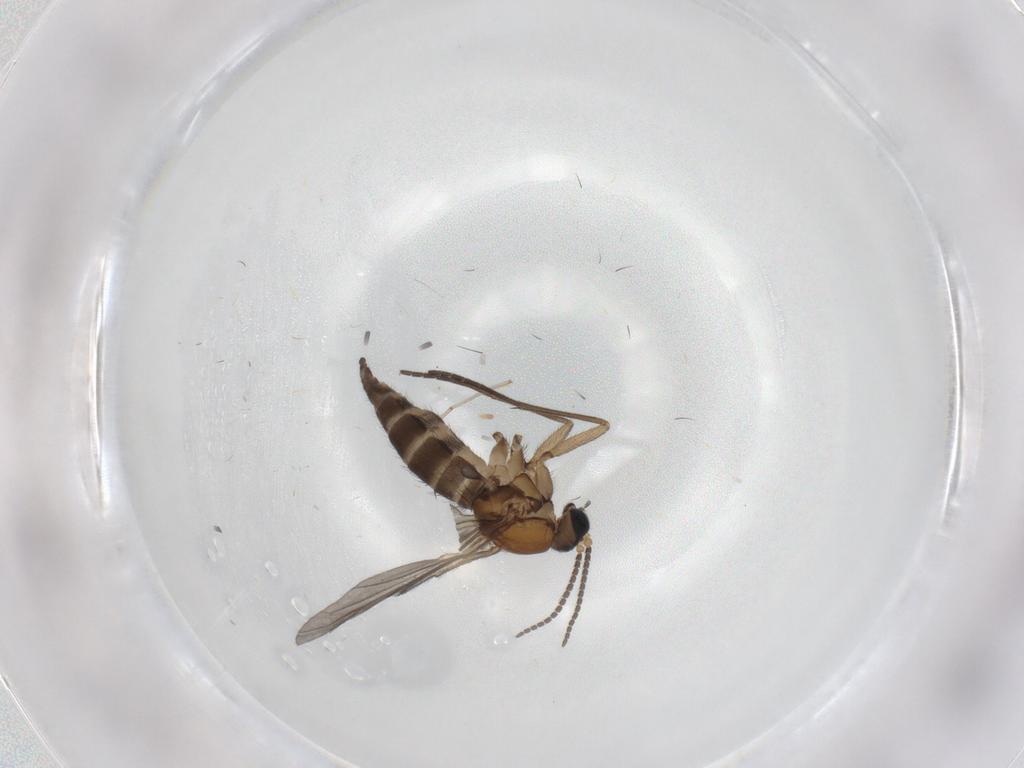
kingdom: Animalia
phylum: Arthropoda
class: Insecta
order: Diptera
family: Sciaridae
